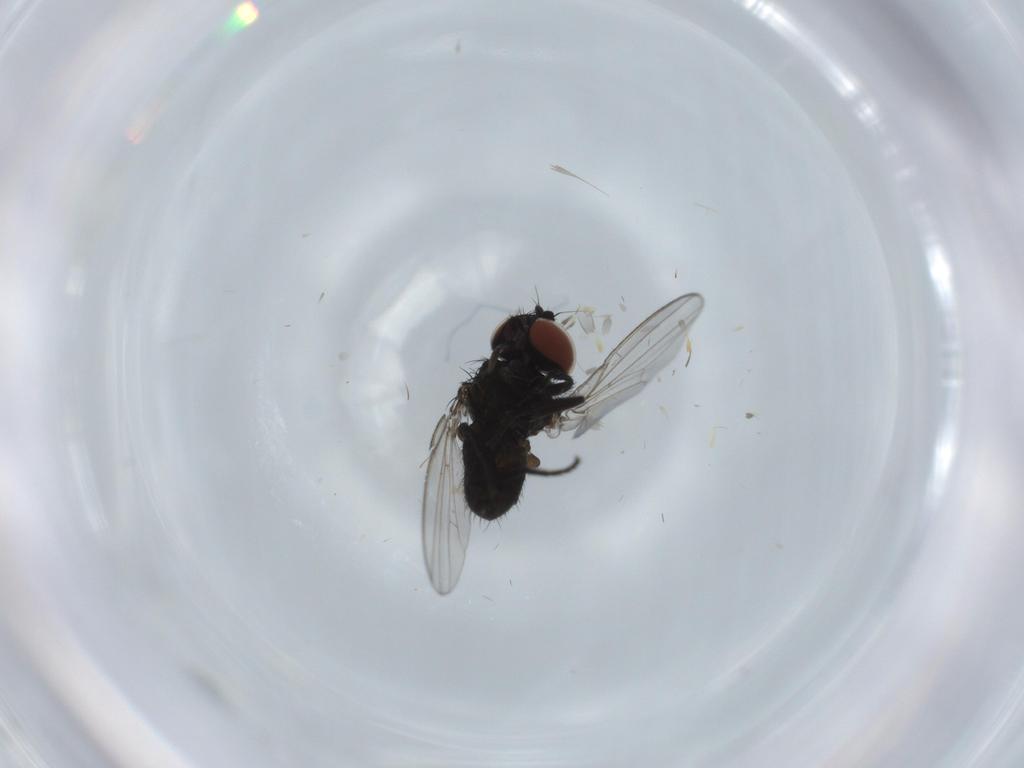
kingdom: Animalia
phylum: Arthropoda
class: Insecta
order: Diptera
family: Milichiidae
